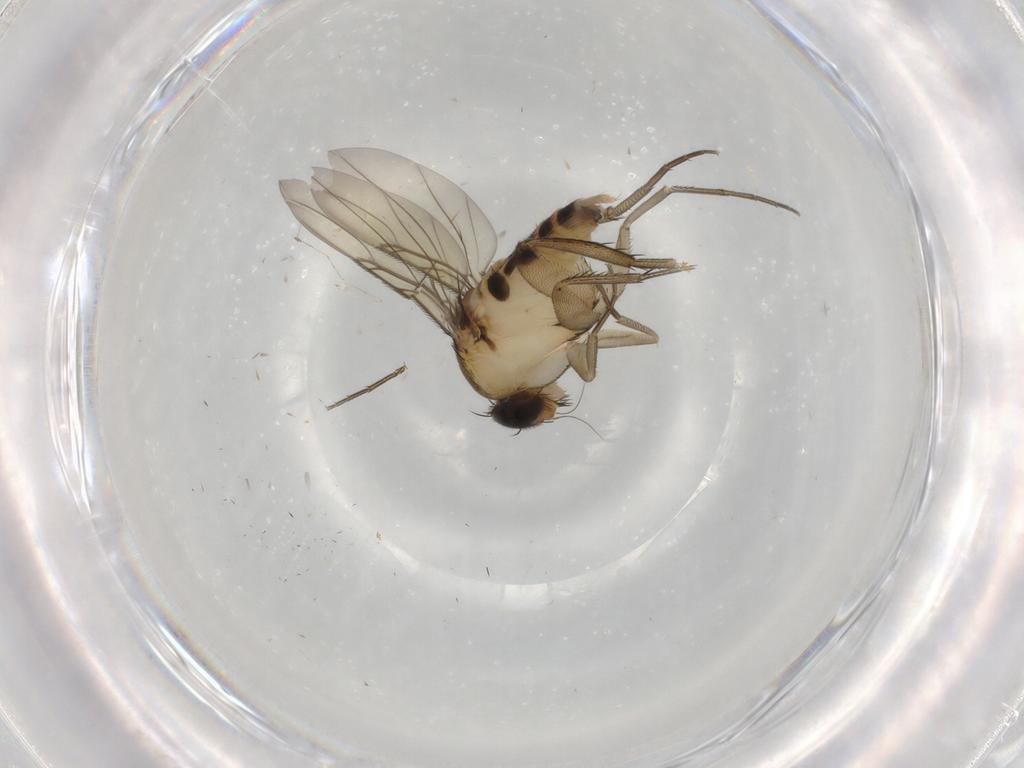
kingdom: Animalia
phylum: Arthropoda
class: Insecta
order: Diptera
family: Phoridae
